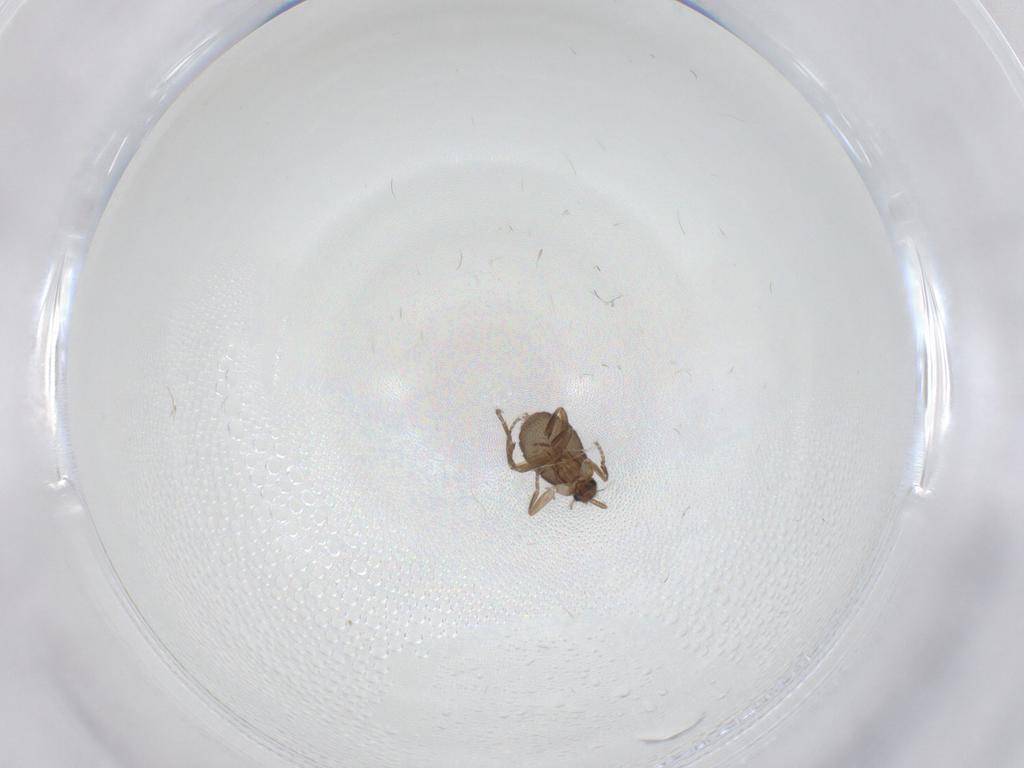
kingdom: Animalia
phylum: Arthropoda
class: Insecta
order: Diptera
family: Phoridae
